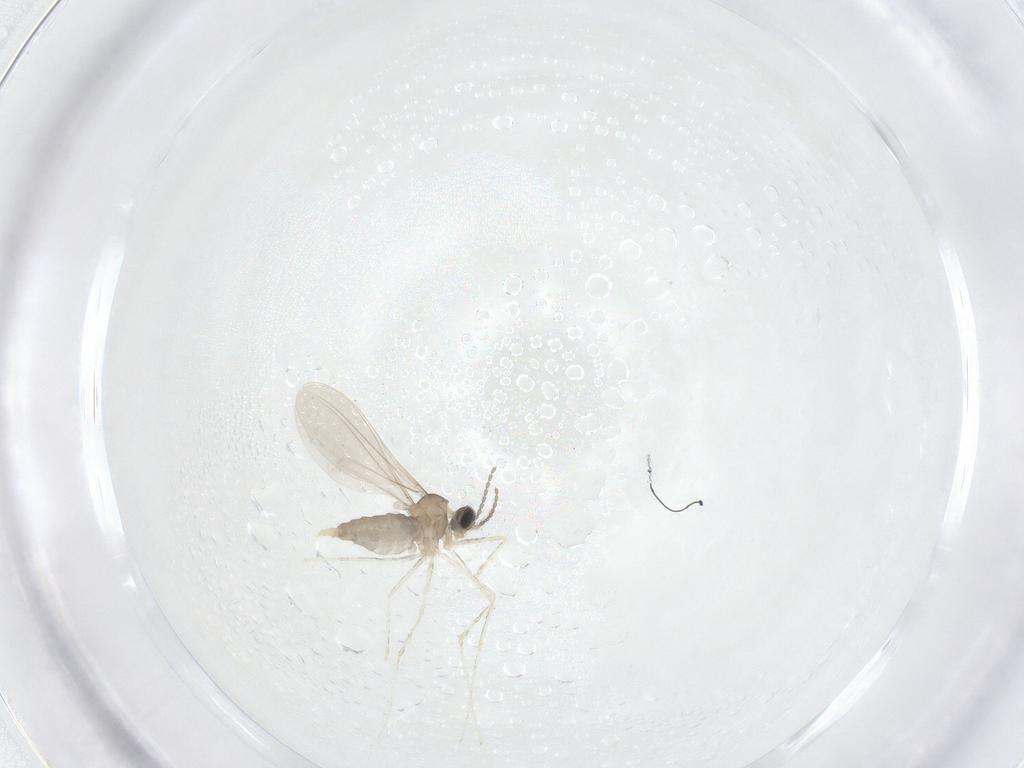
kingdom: Animalia
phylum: Arthropoda
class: Insecta
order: Diptera
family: Cecidomyiidae
